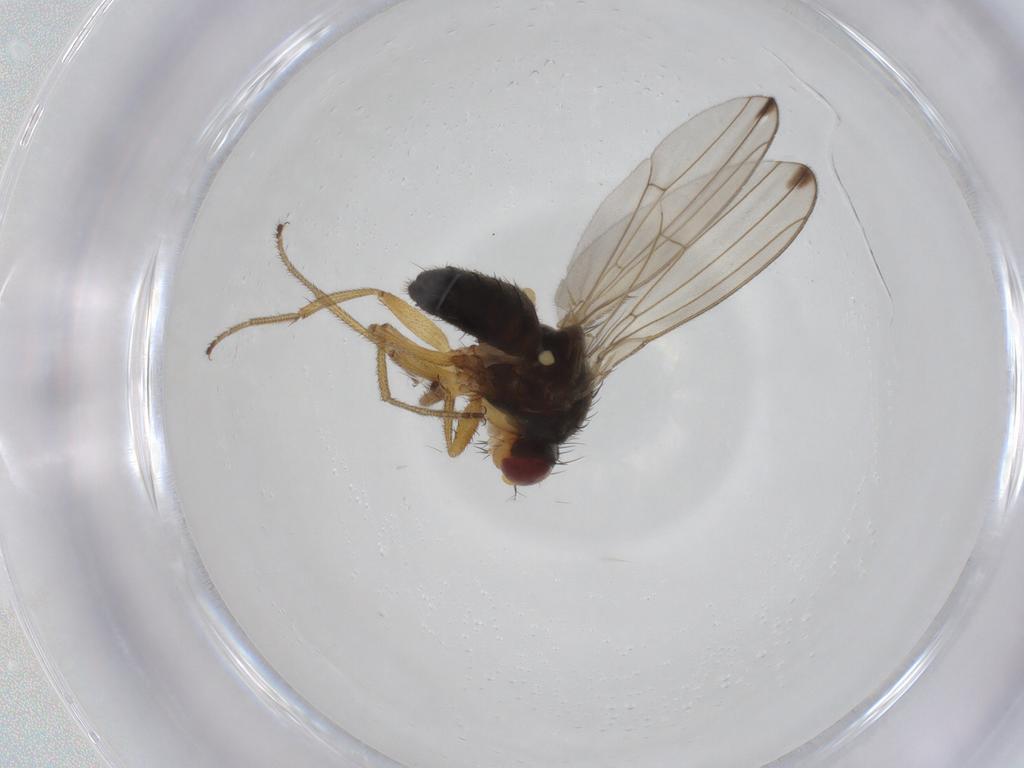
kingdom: Animalia
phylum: Arthropoda
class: Insecta
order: Diptera
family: Drosophilidae
